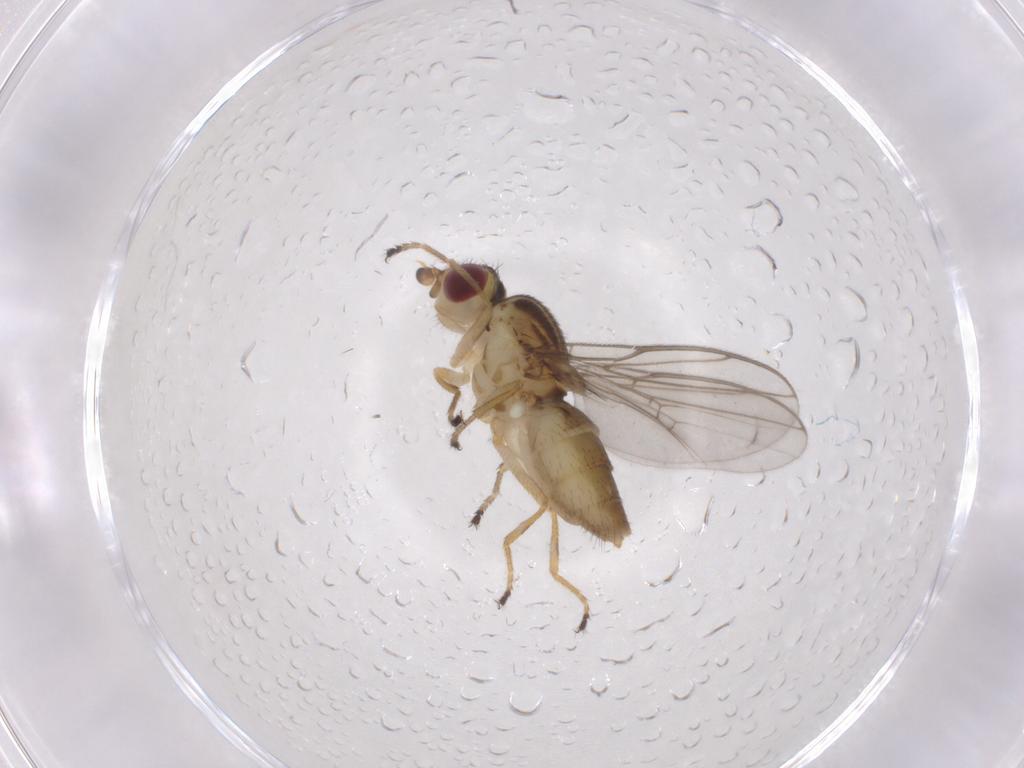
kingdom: Animalia
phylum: Arthropoda
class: Insecta
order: Diptera
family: Chloropidae
